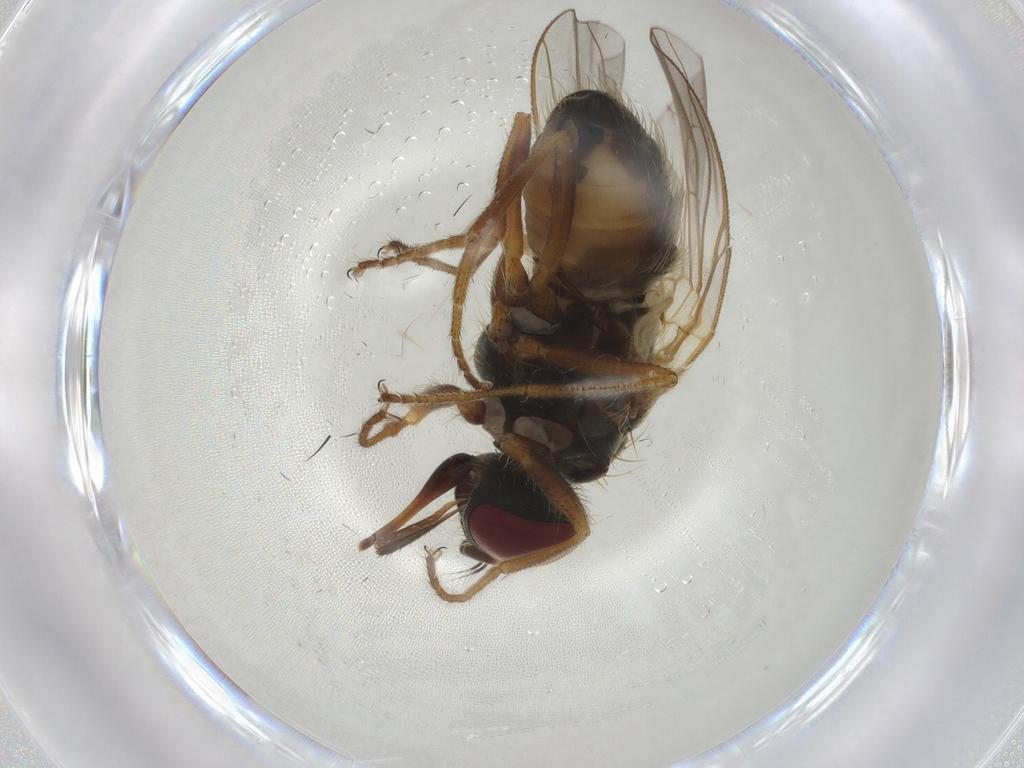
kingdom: Animalia
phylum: Arthropoda
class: Insecta
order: Diptera
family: Phoridae
